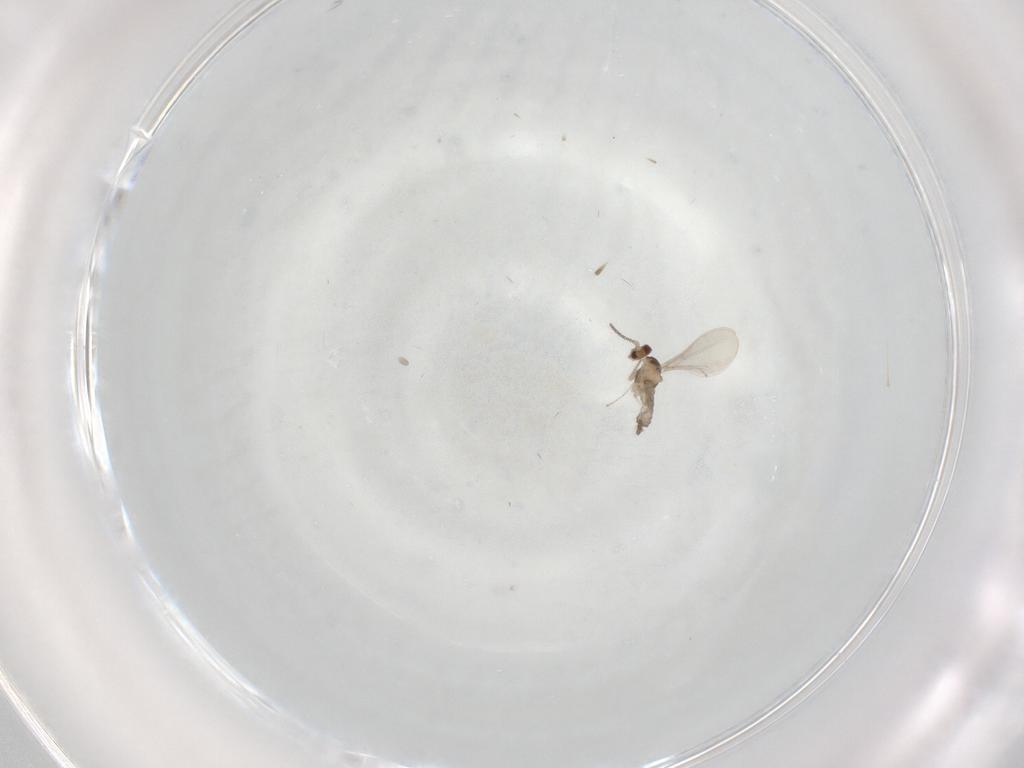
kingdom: Animalia
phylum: Arthropoda
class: Insecta
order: Diptera
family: Cecidomyiidae
